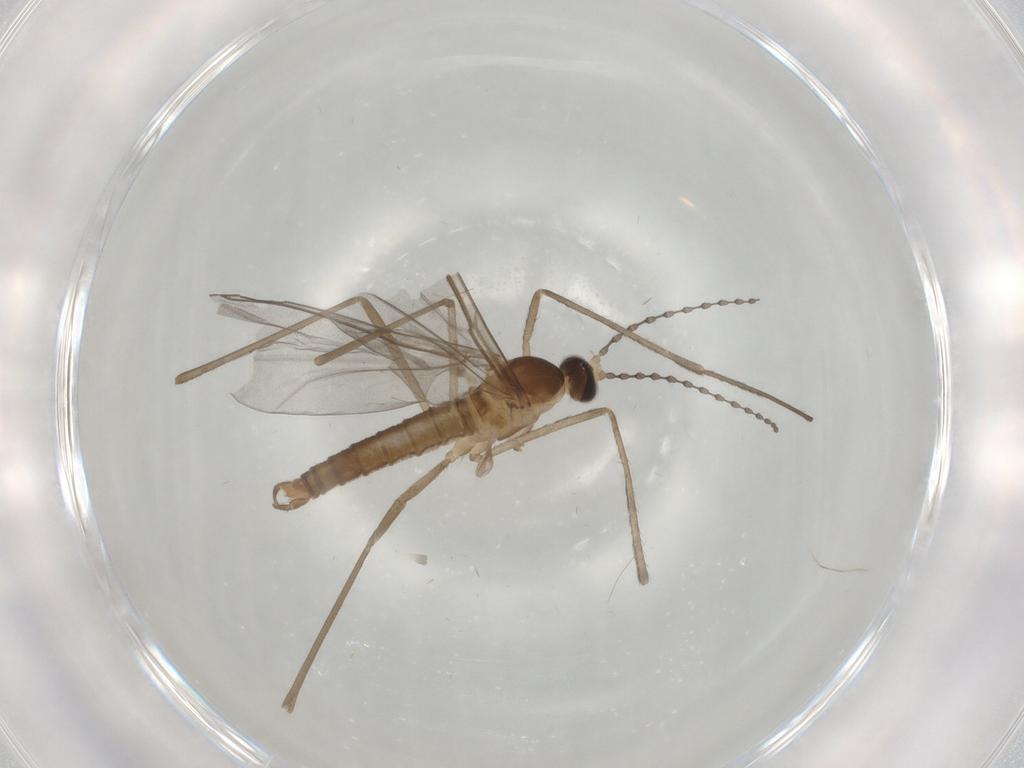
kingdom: Animalia
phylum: Arthropoda
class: Insecta
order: Diptera
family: Cecidomyiidae
